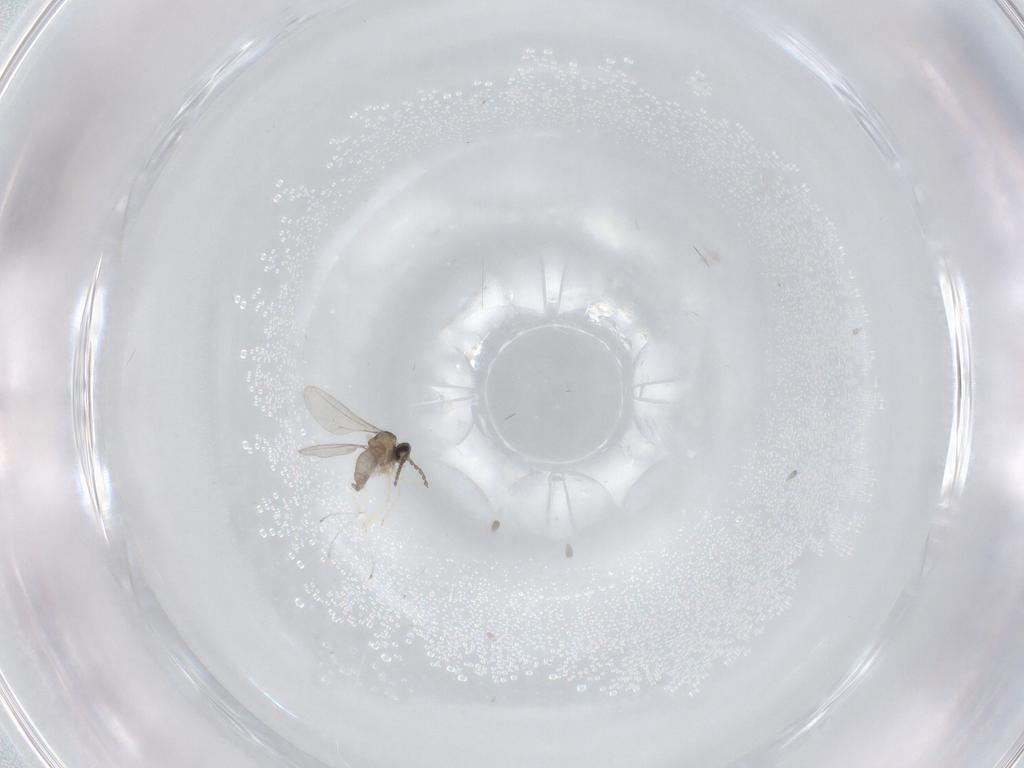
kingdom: Animalia
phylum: Arthropoda
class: Insecta
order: Diptera
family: Cecidomyiidae
